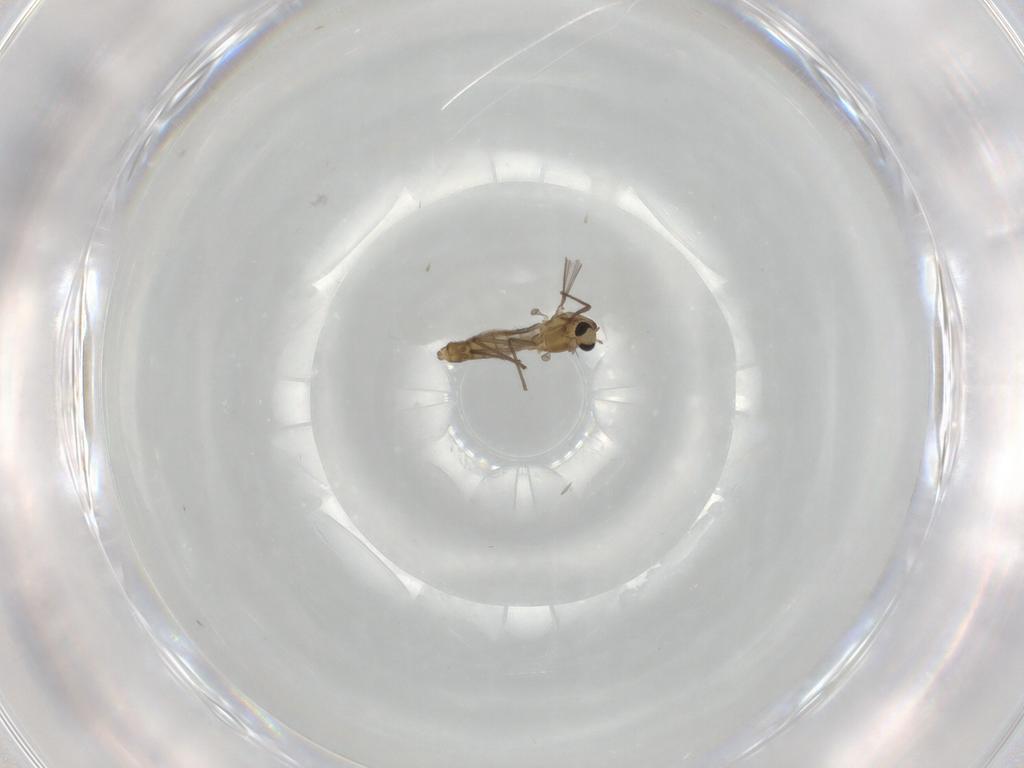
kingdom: Animalia
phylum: Arthropoda
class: Insecta
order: Diptera
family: Drosophilidae
